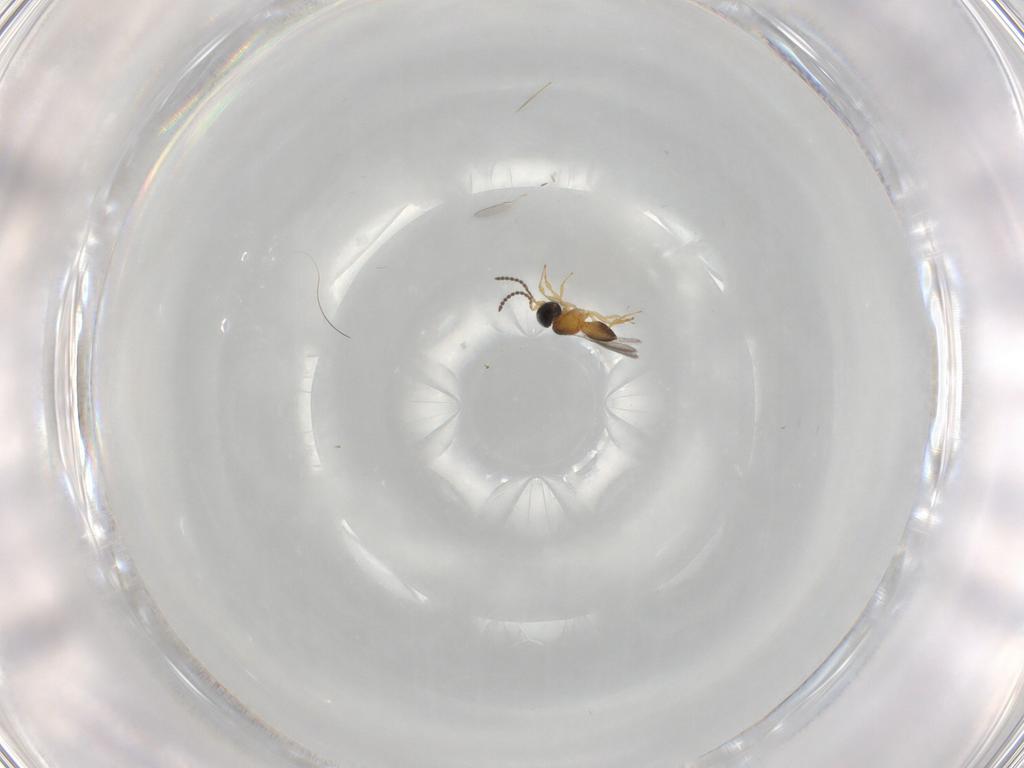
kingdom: Animalia
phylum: Arthropoda
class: Insecta
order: Hymenoptera
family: Scelionidae
